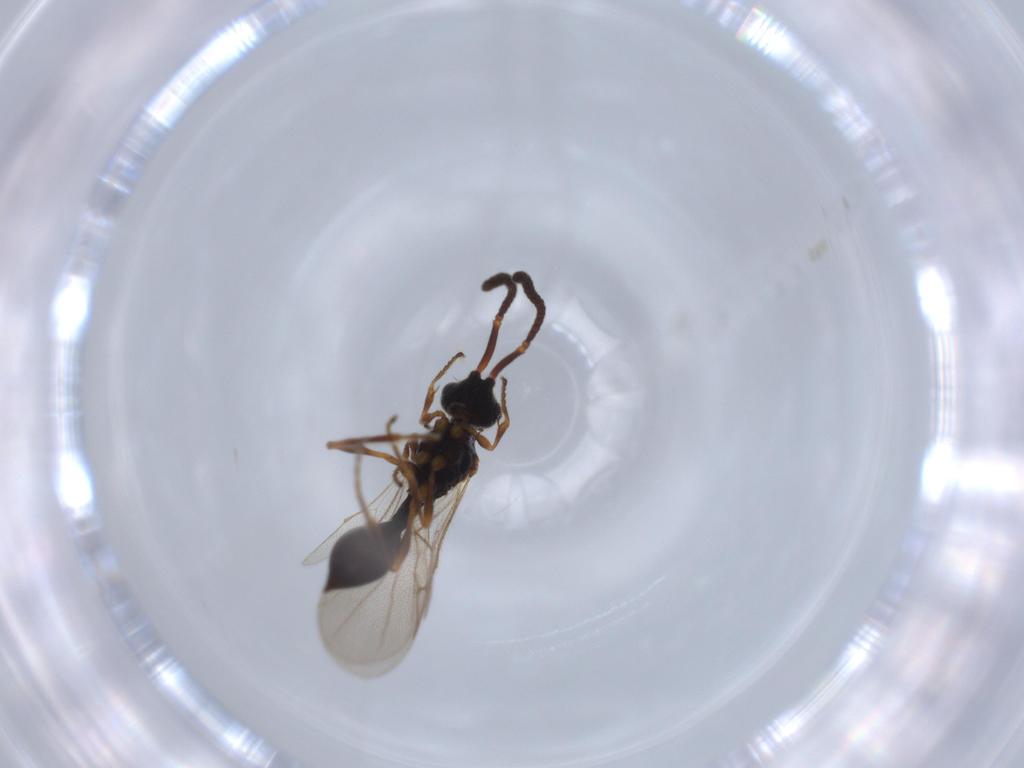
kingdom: Animalia
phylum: Arthropoda
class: Insecta
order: Hymenoptera
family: Diapriidae
